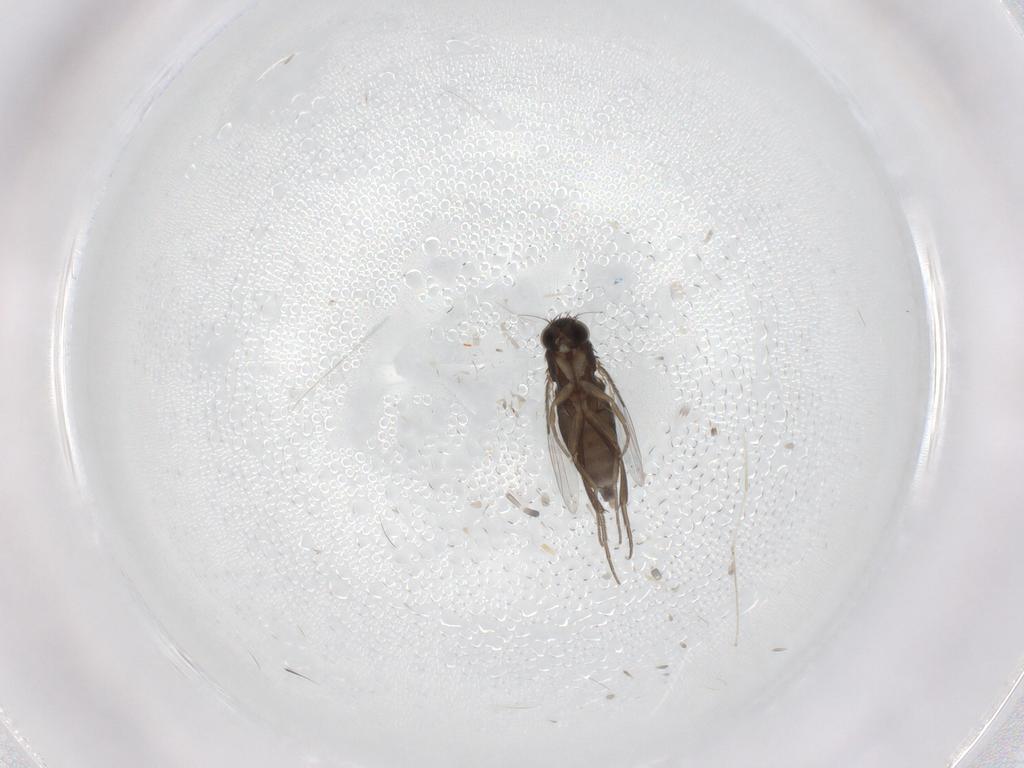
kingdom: Animalia
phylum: Arthropoda
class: Insecta
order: Diptera
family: Phoridae
